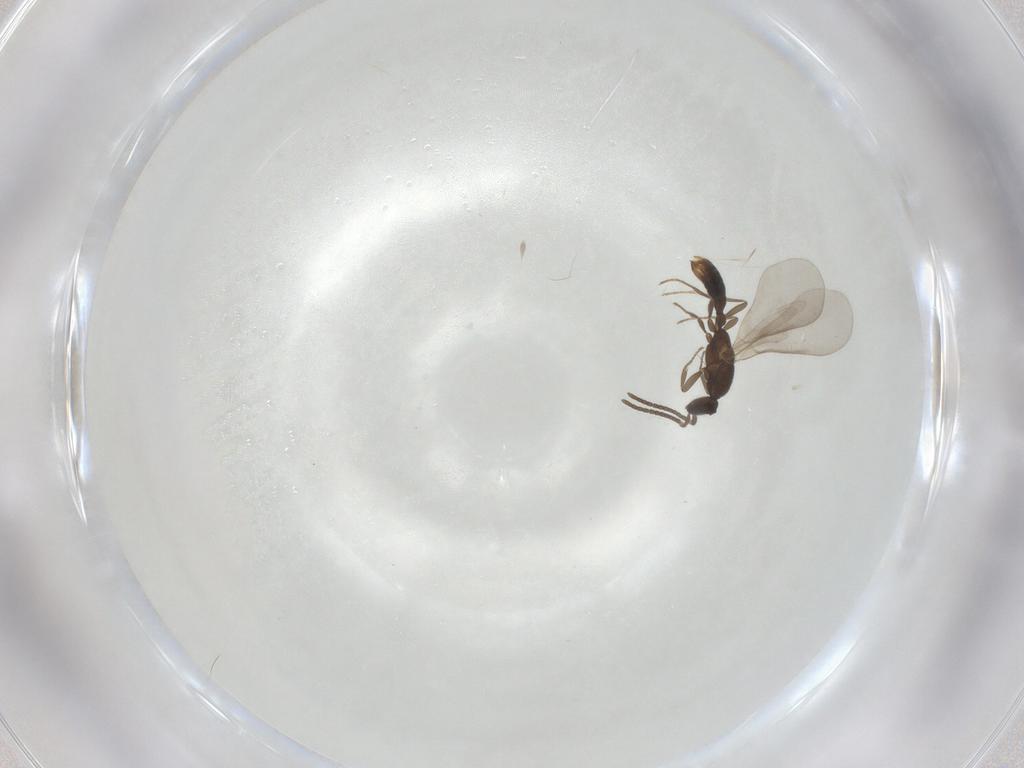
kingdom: Animalia
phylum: Arthropoda
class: Insecta
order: Hymenoptera
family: Formicidae
